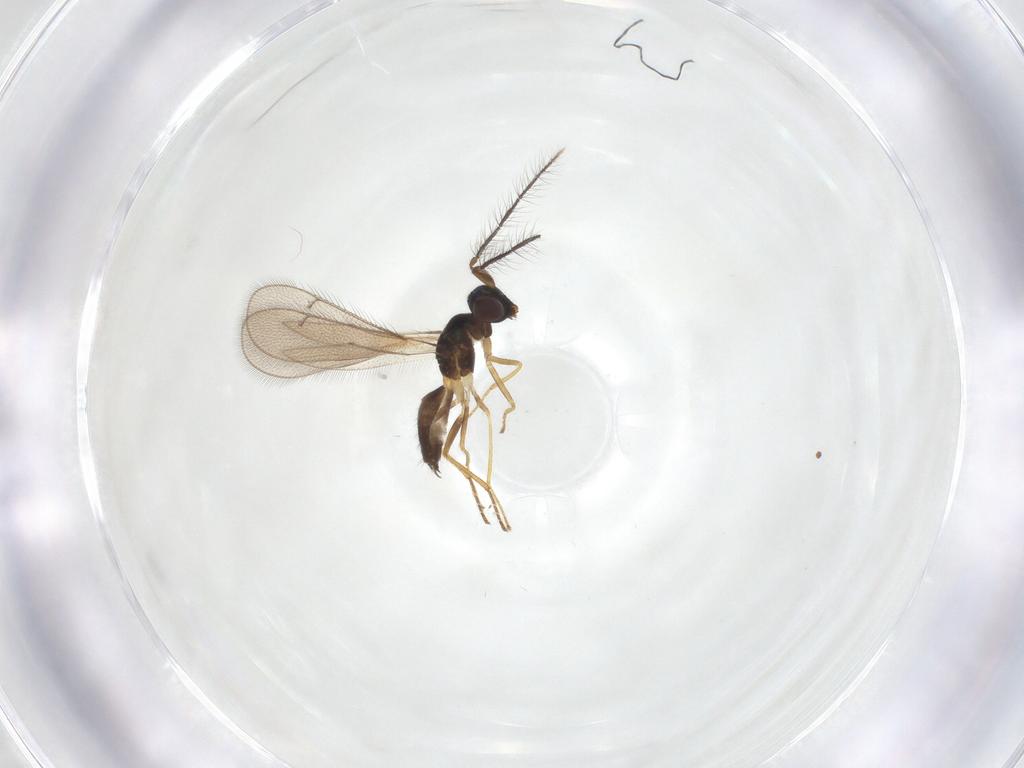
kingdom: Animalia
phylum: Arthropoda
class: Insecta
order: Hymenoptera
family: Eulophidae
